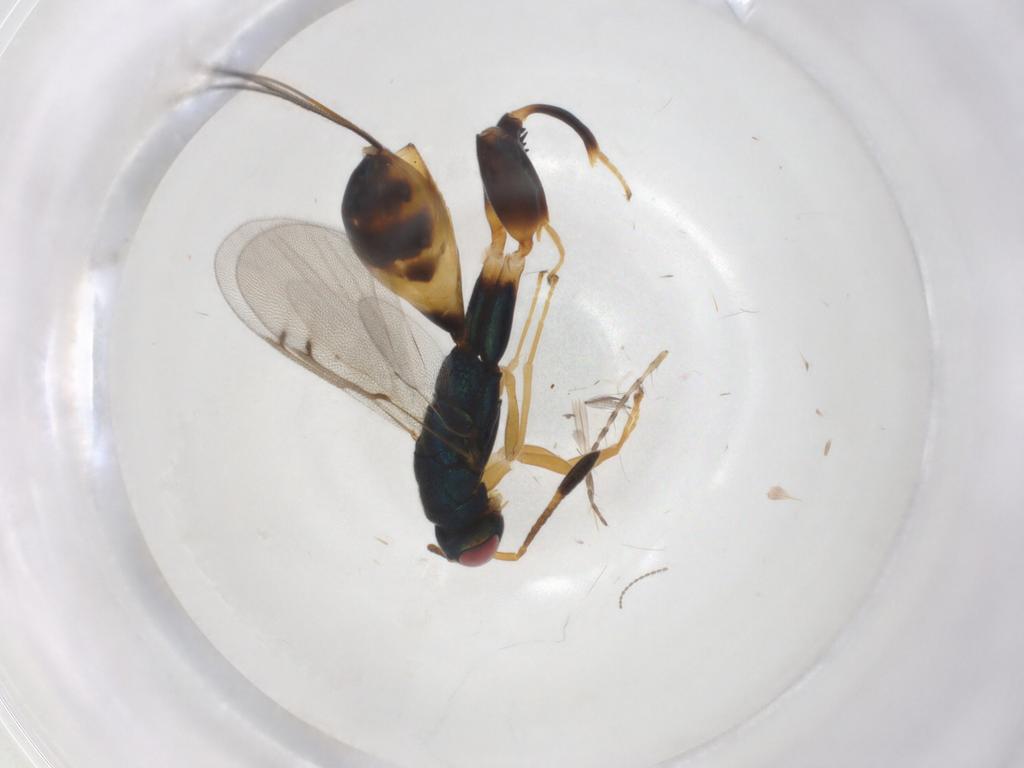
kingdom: Animalia
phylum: Arthropoda
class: Insecta
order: Hymenoptera
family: Torymidae
